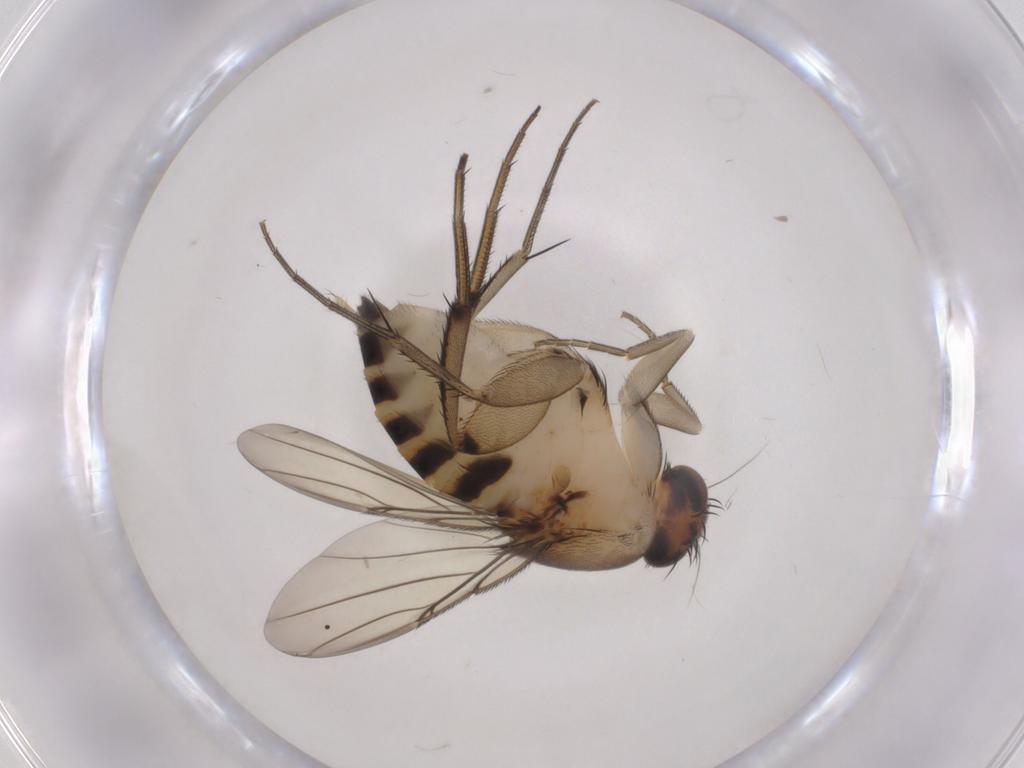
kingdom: Animalia
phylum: Arthropoda
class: Insecta
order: Diptera
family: Phoridae
